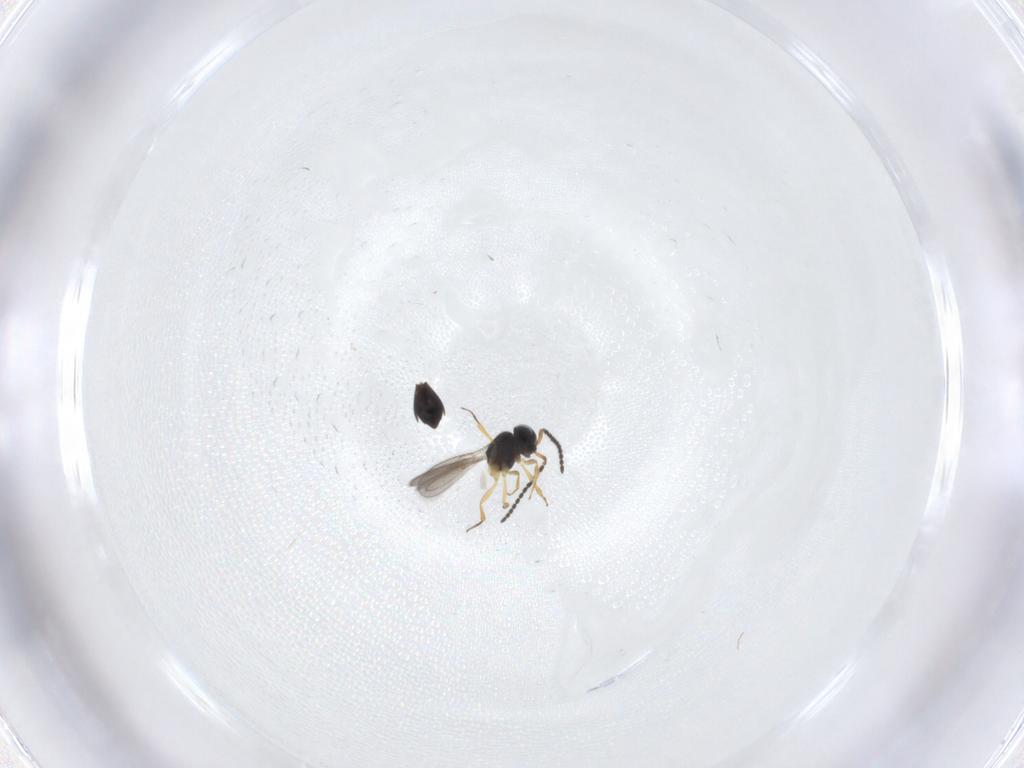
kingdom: Animalia
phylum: Arthropoda
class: Insecta
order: Hymenoptera
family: Scelionidae
